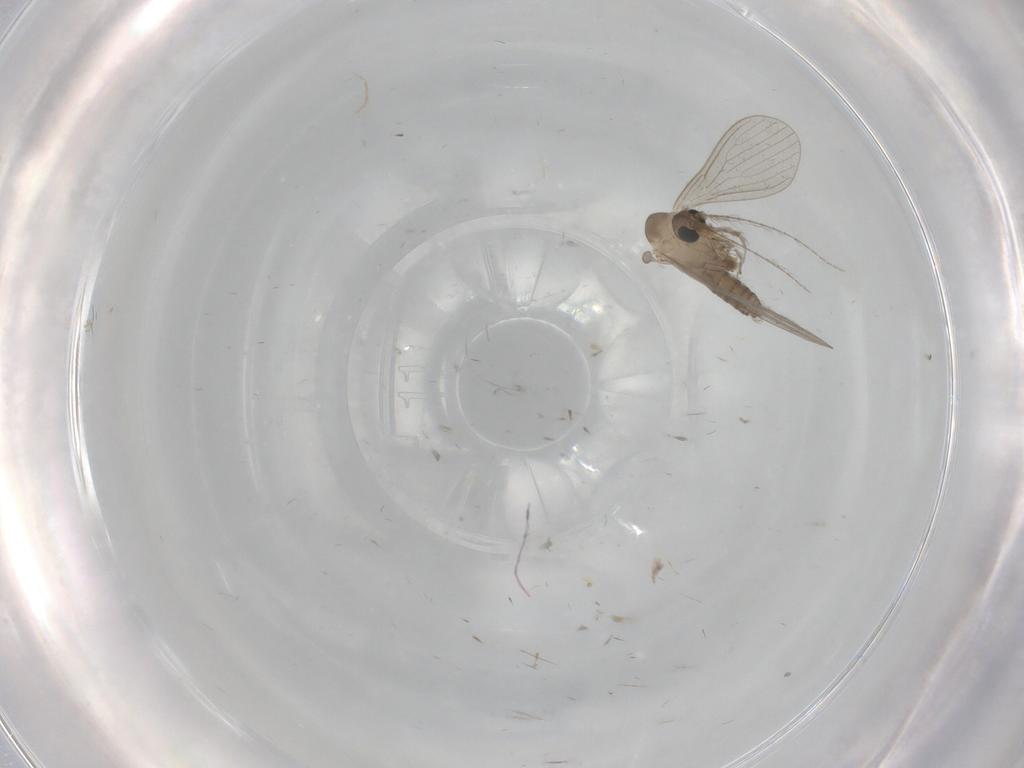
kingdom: Animalia
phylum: Arthropoda
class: Insecta
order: Diptera
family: Psychodidae
